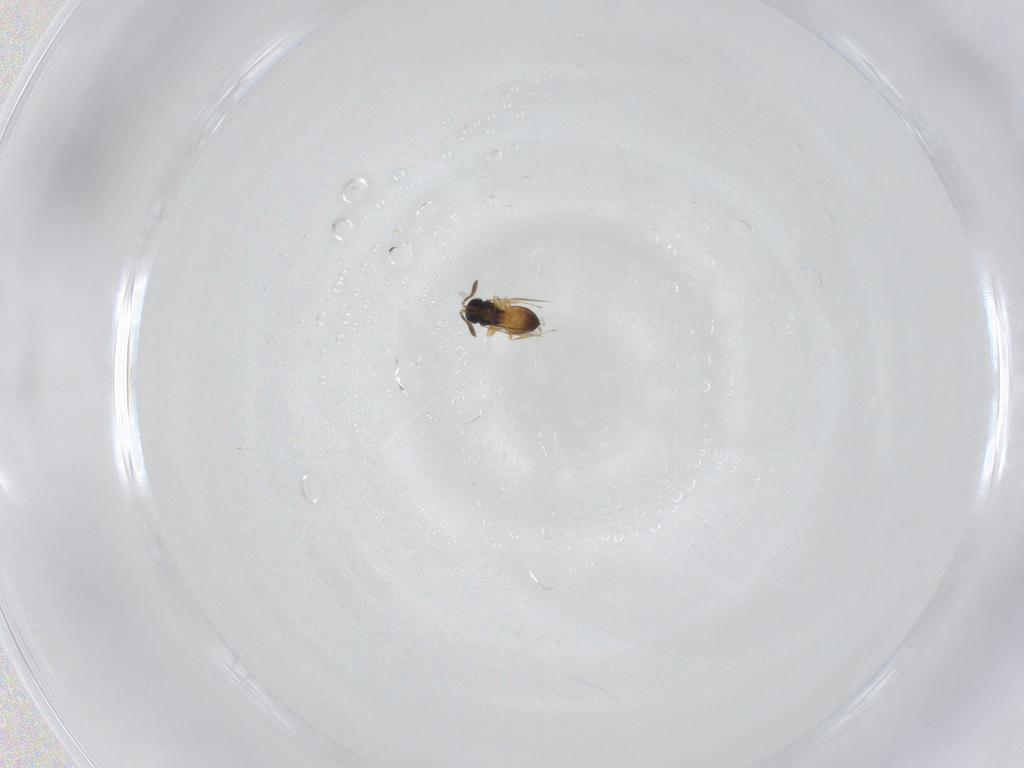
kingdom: Animalia
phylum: Arthropoda
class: Insecta
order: Hymenoptera
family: Scelionidae
